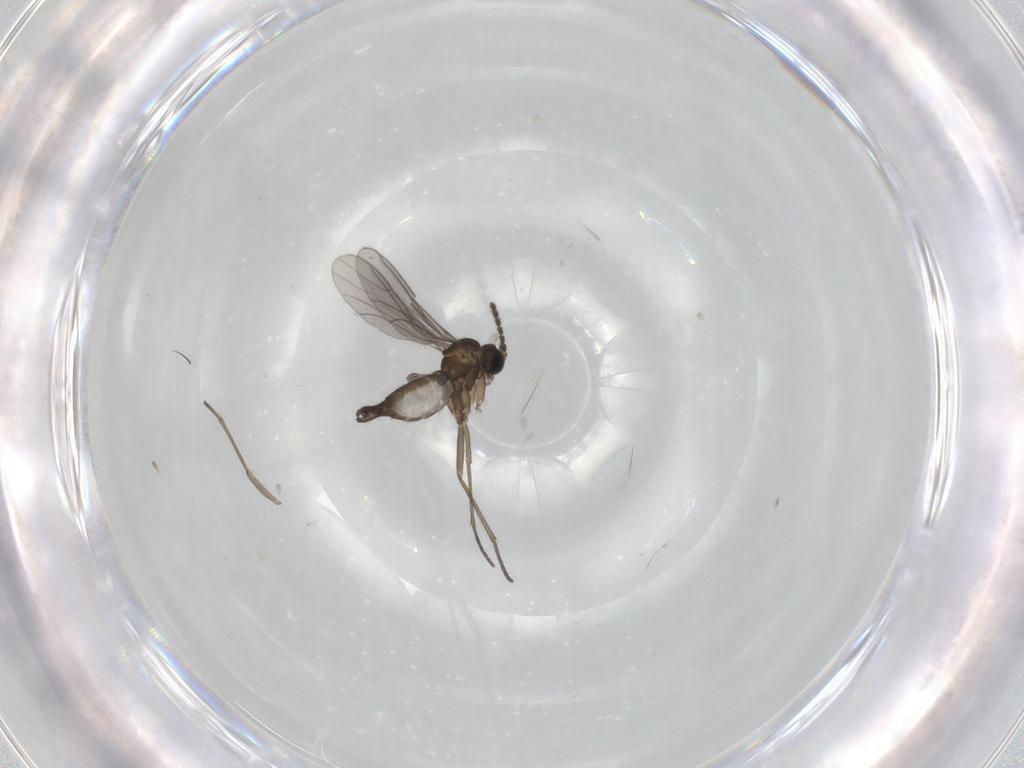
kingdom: Animalia
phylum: Arthropoda
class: Insecta
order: Diptera
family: Sciaridae
